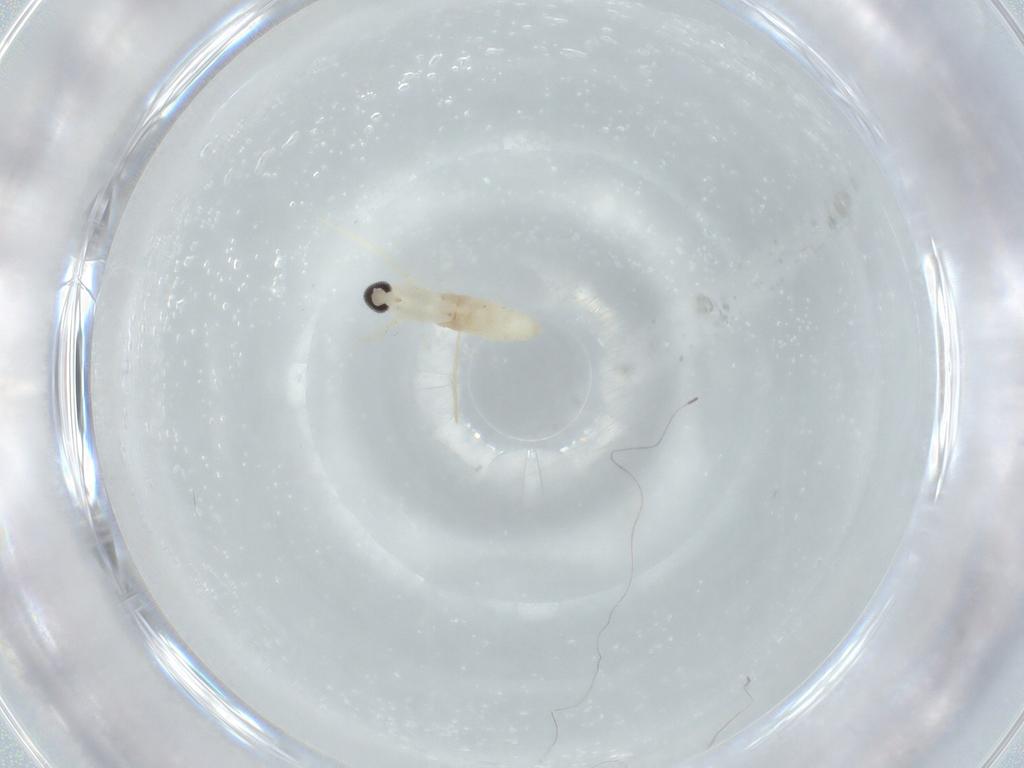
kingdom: Animalia
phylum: Arthropoda
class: Insecta
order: Diptera
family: Cecidomyiidae
